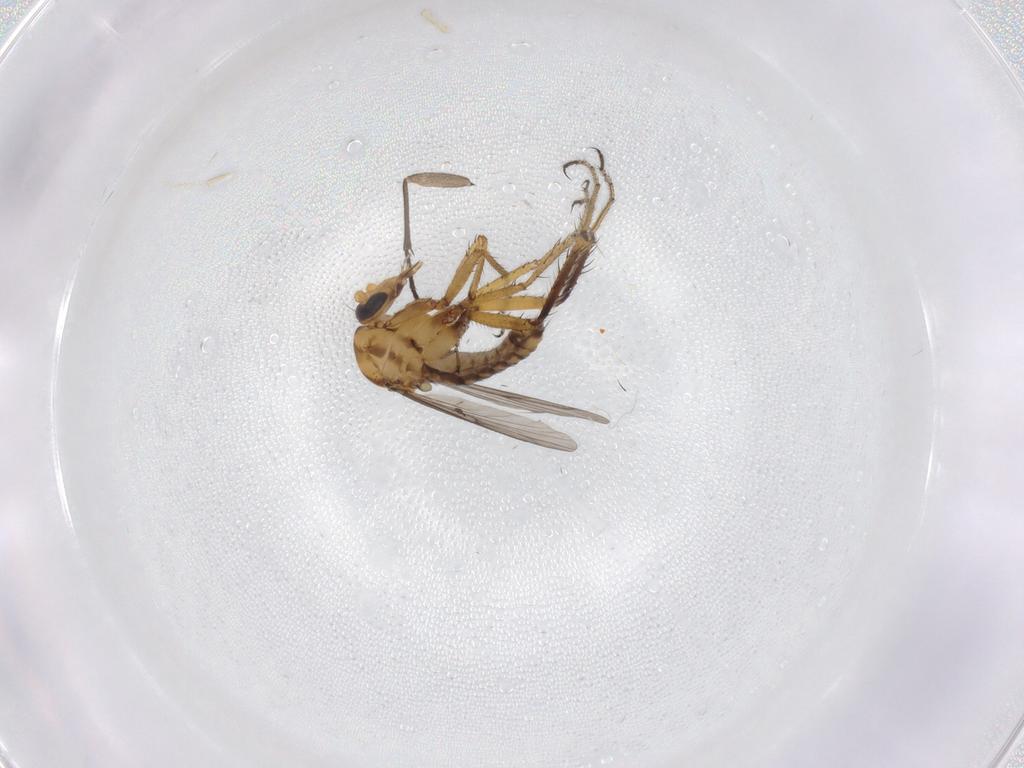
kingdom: Animalia
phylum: Arthropoda
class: Insecta
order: Diptera
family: Ceratopogonidae
